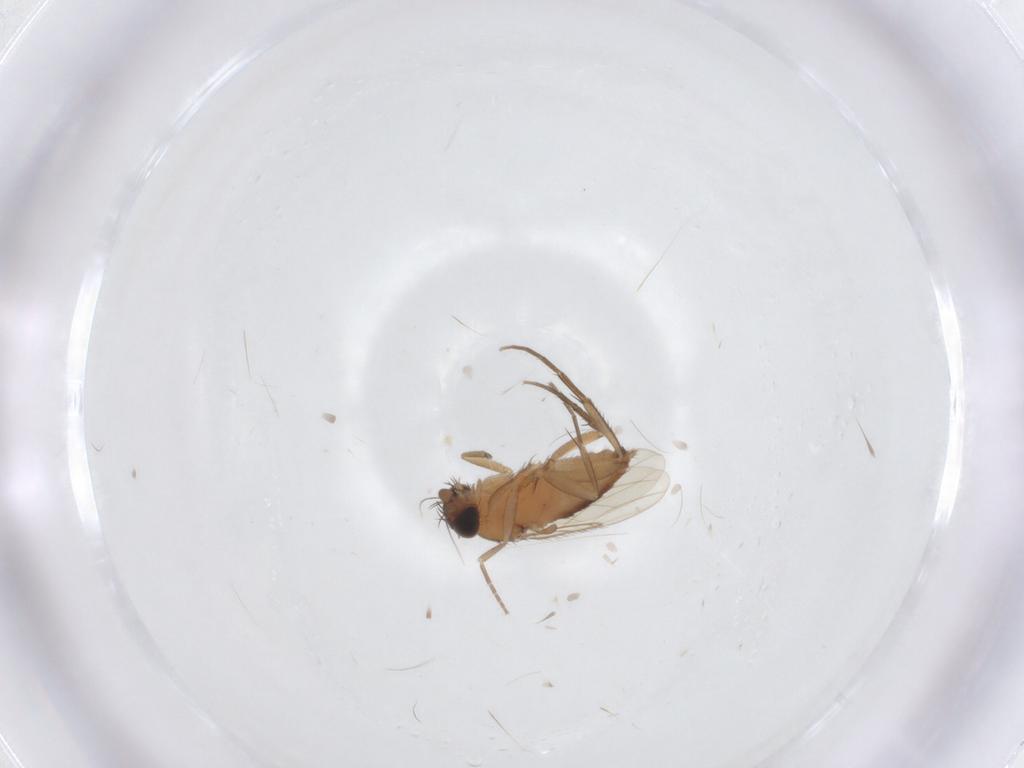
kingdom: Animalia
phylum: Arthropoda
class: Insecta
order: Diptera
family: Phoridae
